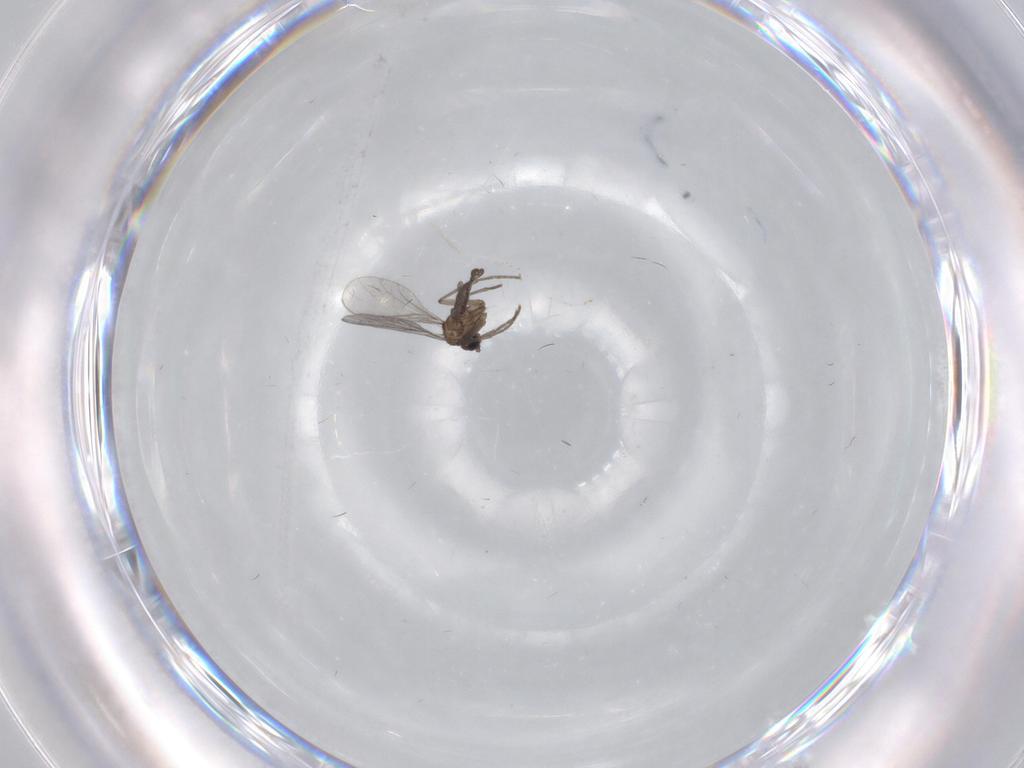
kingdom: Animalia
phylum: Arthropoda
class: Insecta
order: Diptera
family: Sciaridae
